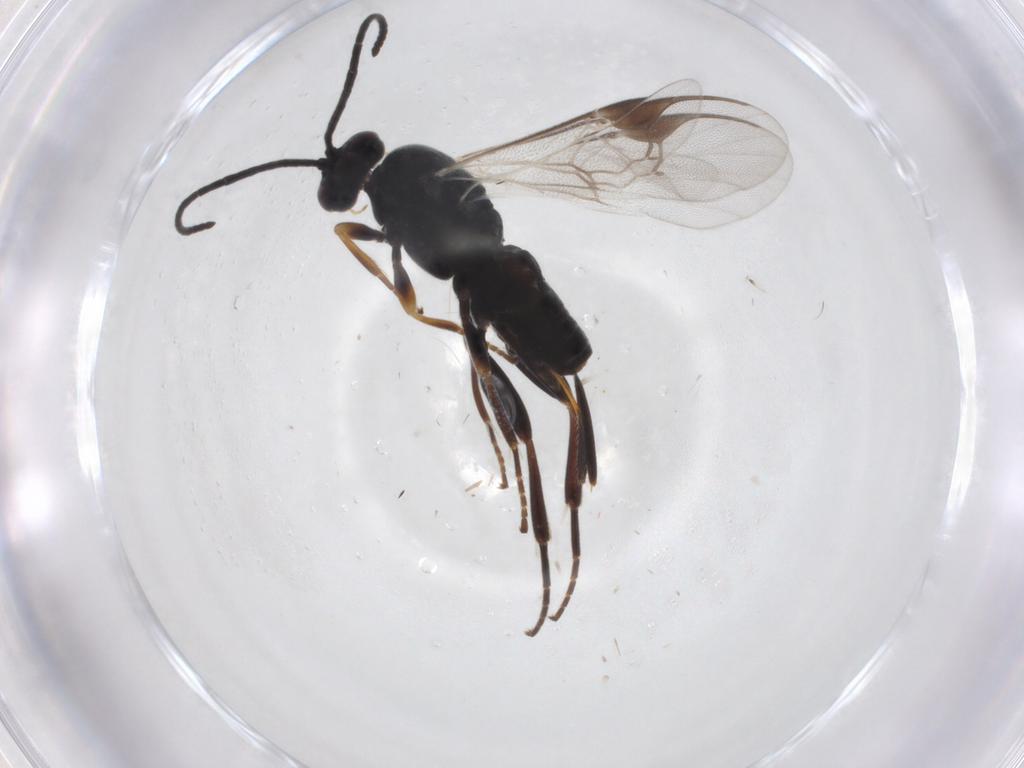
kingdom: Animalia
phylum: Arthropoda
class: Insecta
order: Hymenoptera
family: Braconidae
